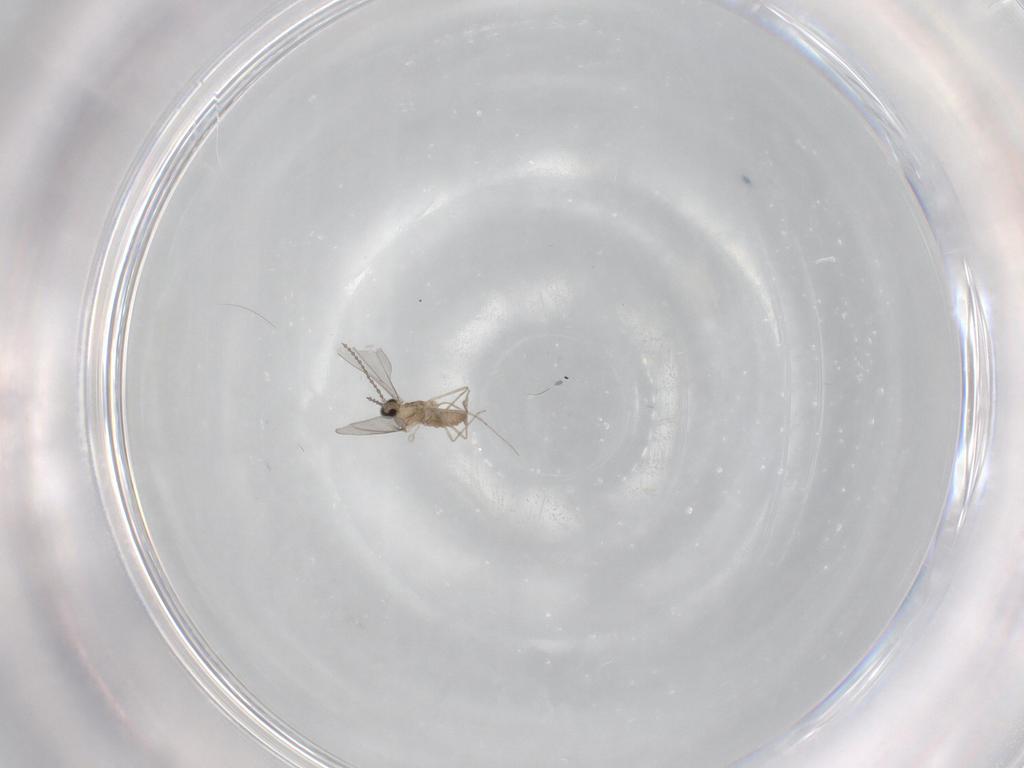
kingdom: Animalia
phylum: Arthropoda
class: Insecta
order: Diptera
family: Cecidomyiidae
